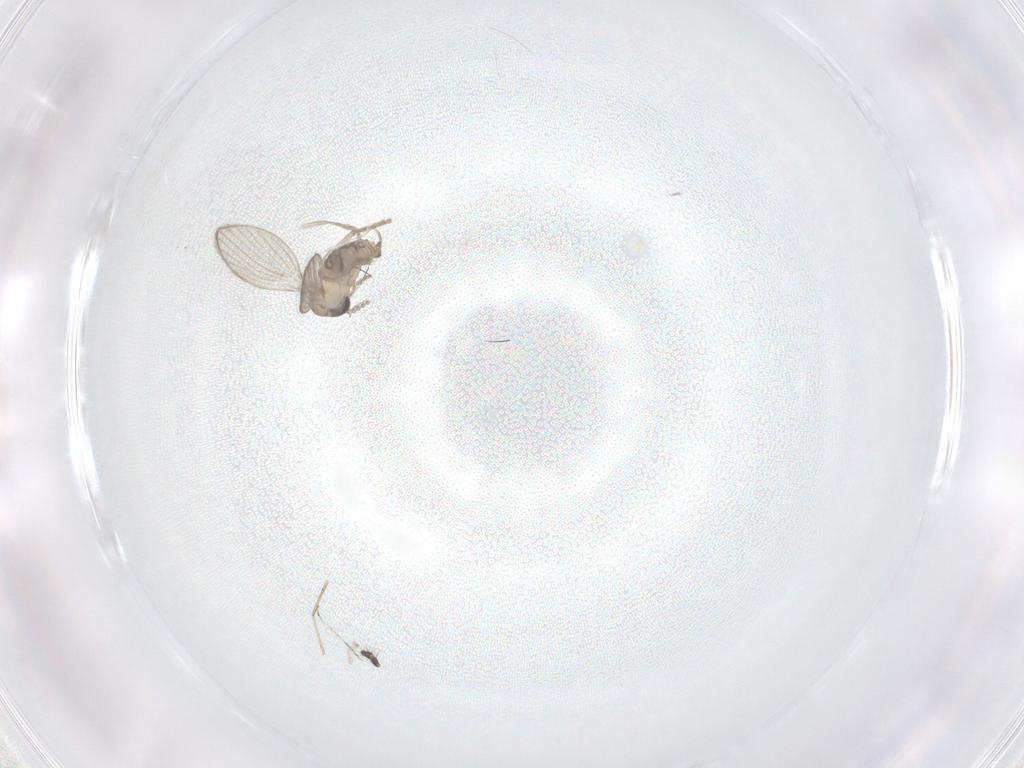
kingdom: Animalia
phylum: Arthropoda
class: Insecta
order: Diptera
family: Psychodidae
